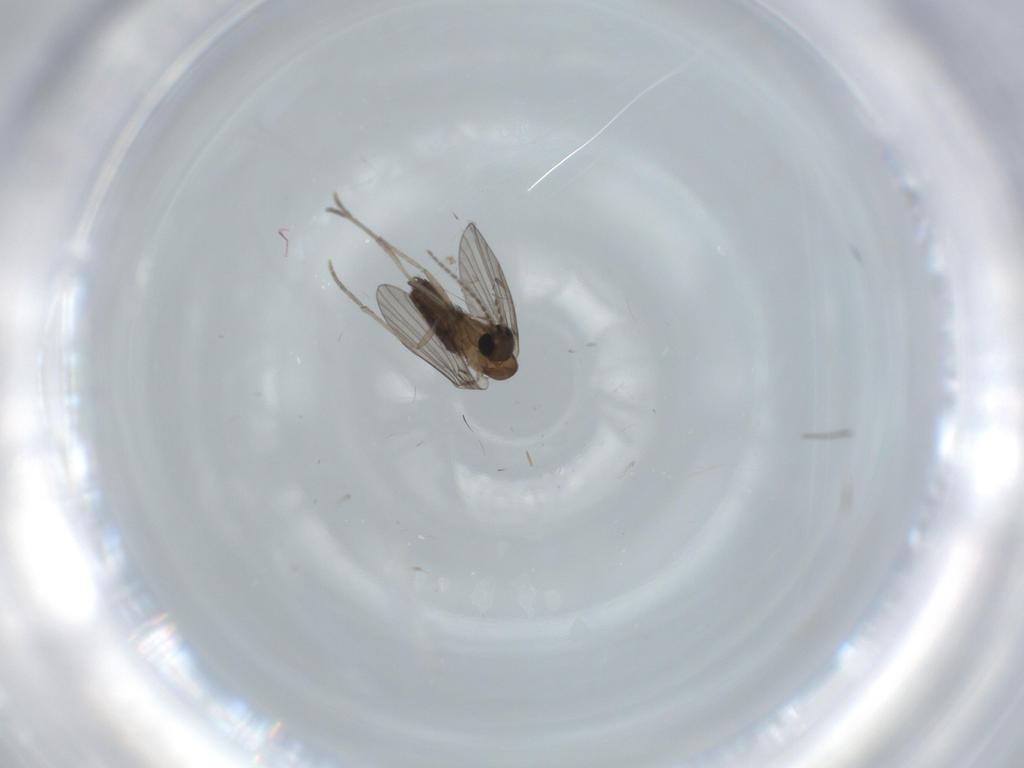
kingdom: Animalia
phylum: Arthropoda
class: Insecta
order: Diptera
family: Psychodidae
